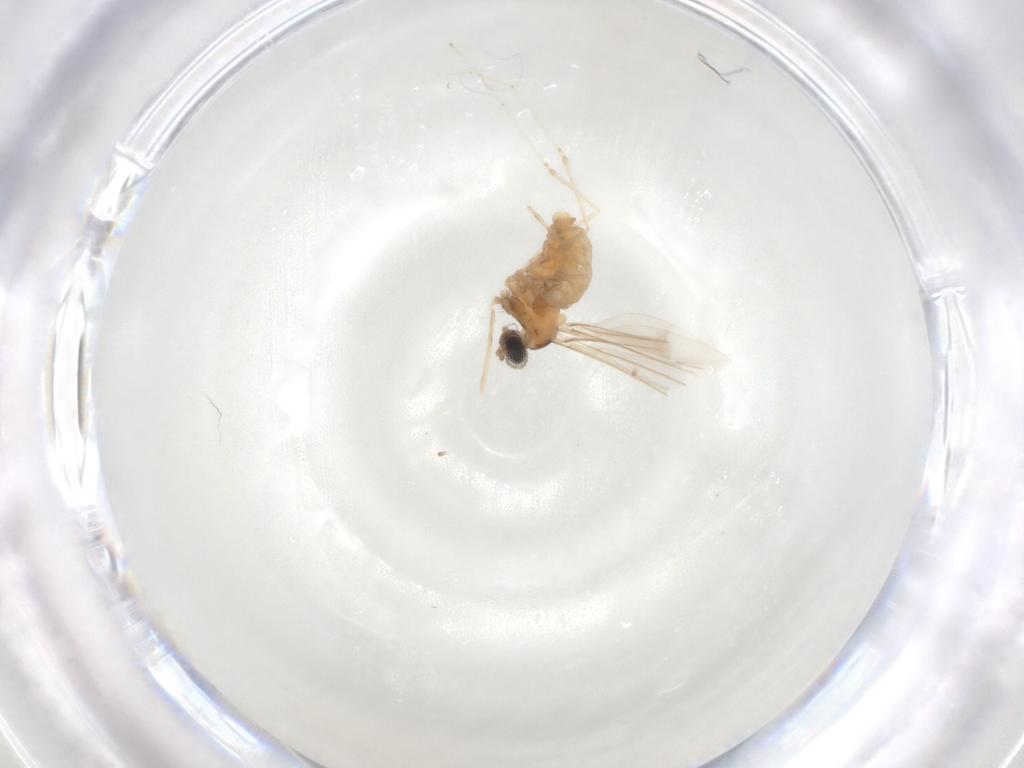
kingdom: Animalia
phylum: Arthropoda
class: Insecta
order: Diptera
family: Cecidomyiidae
